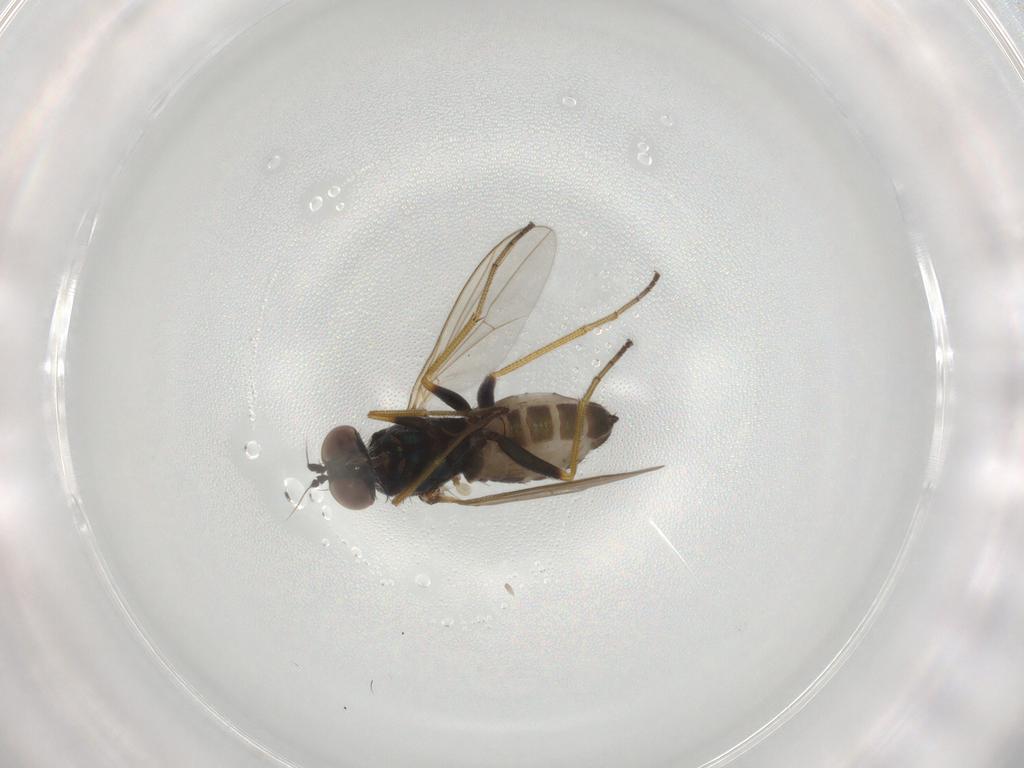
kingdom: Animalia
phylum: Arthropoda
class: Insecta
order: Diptera
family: Dolichopodidae
